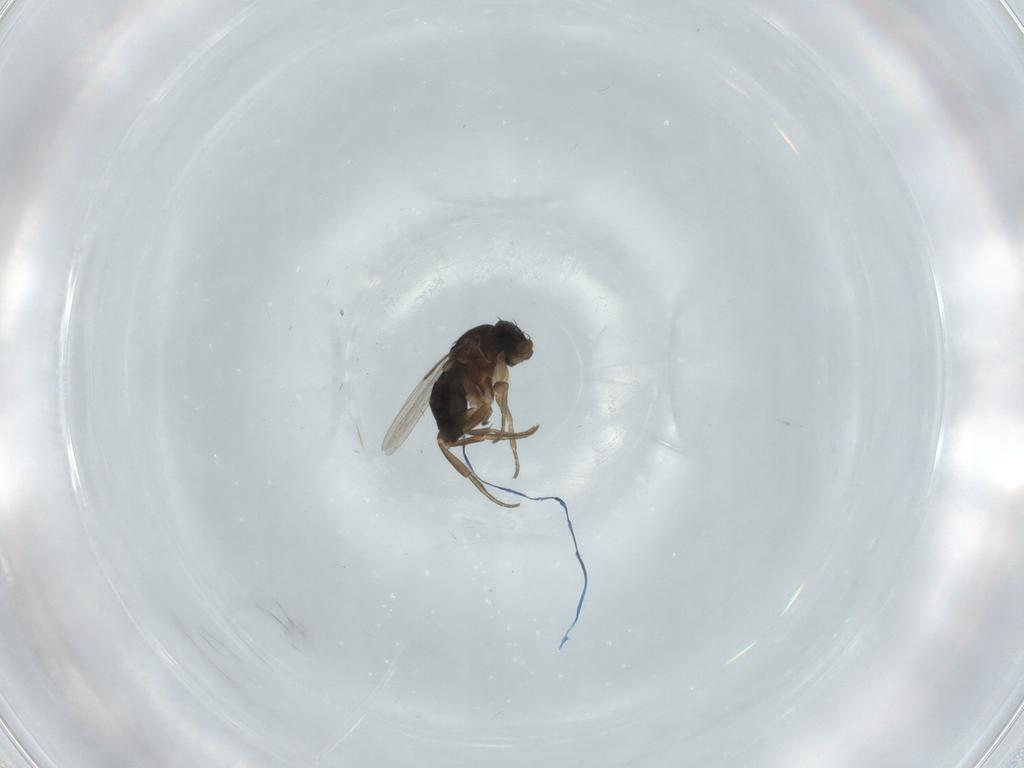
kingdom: Animalia
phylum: Arthropoda
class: Insecta
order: Diptera
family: Phoridae
